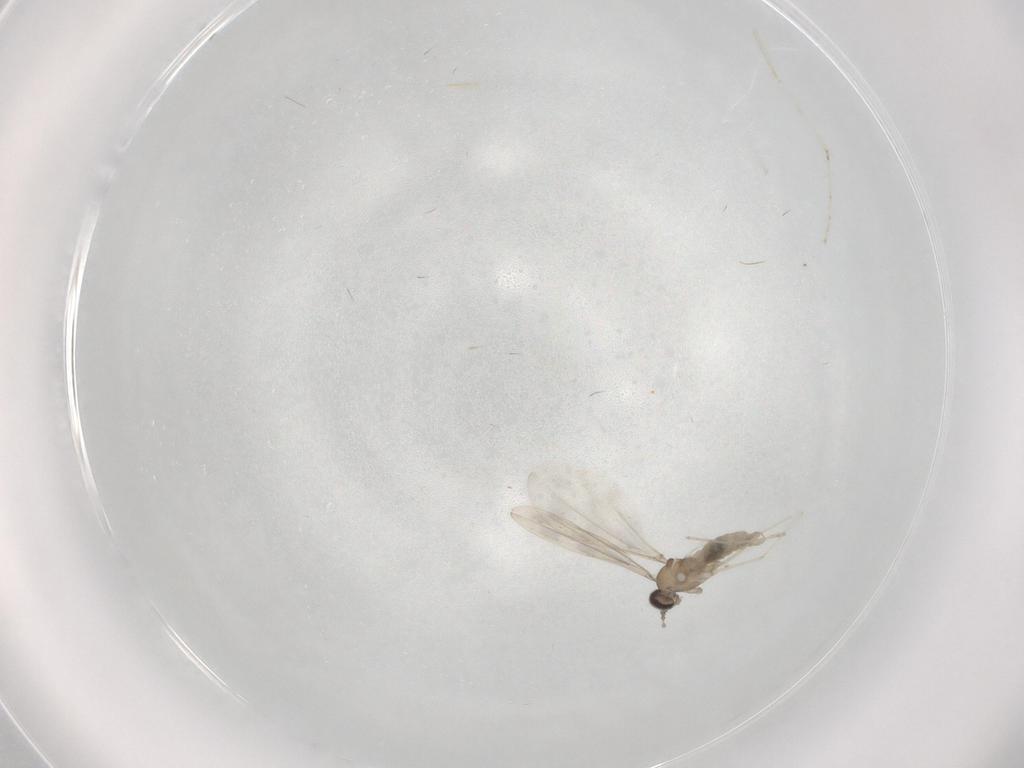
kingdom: Animalia
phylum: Arthropoda
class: Insecta
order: Diptera
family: Cecidomyiidae
